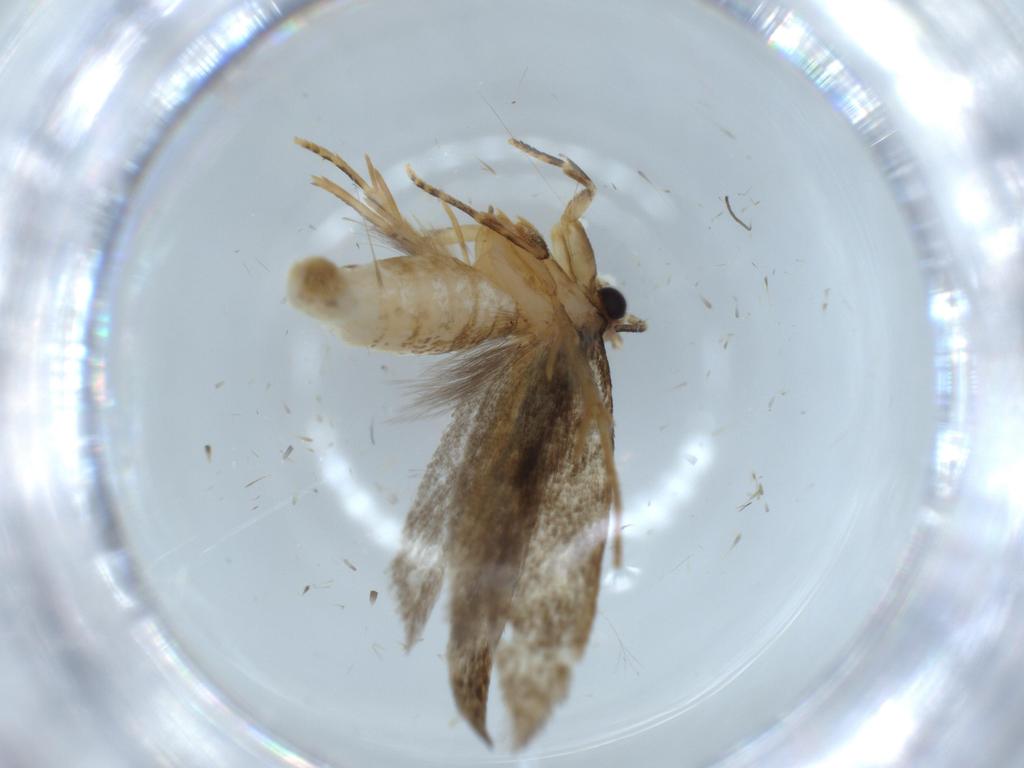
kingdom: Animalia
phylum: Arthropoda
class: Insecta
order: Lepidoptera
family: Tineidae
